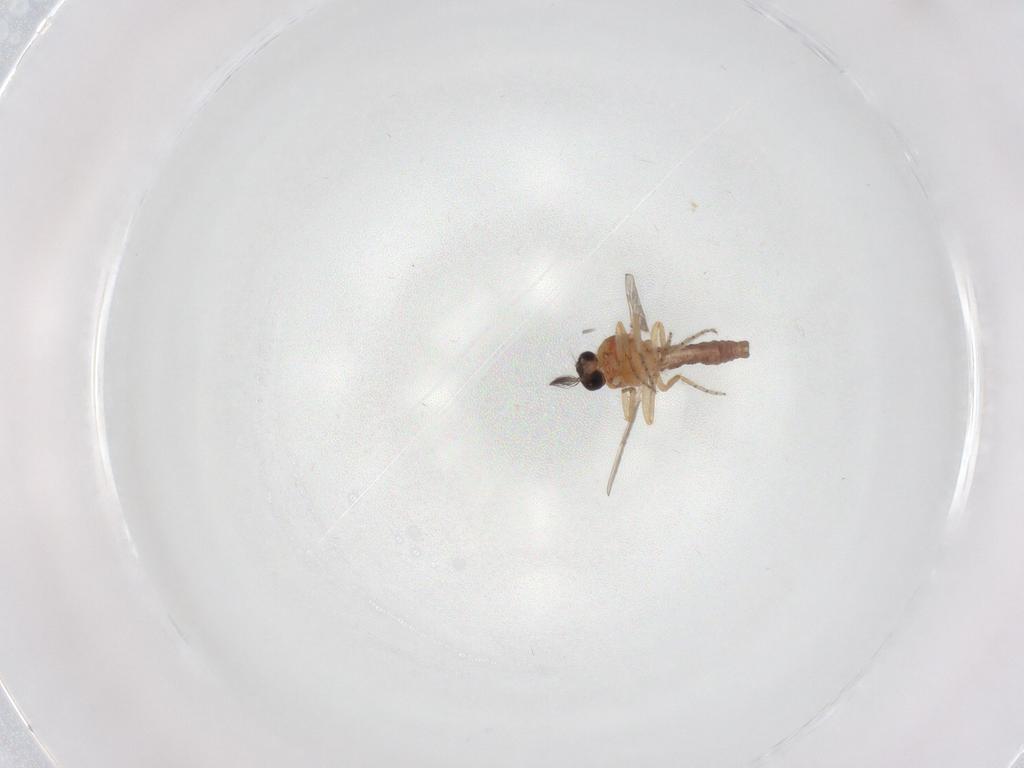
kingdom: Animalia
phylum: Arthropoda
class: Insecta
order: Diptera
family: Ceratopogonidae
